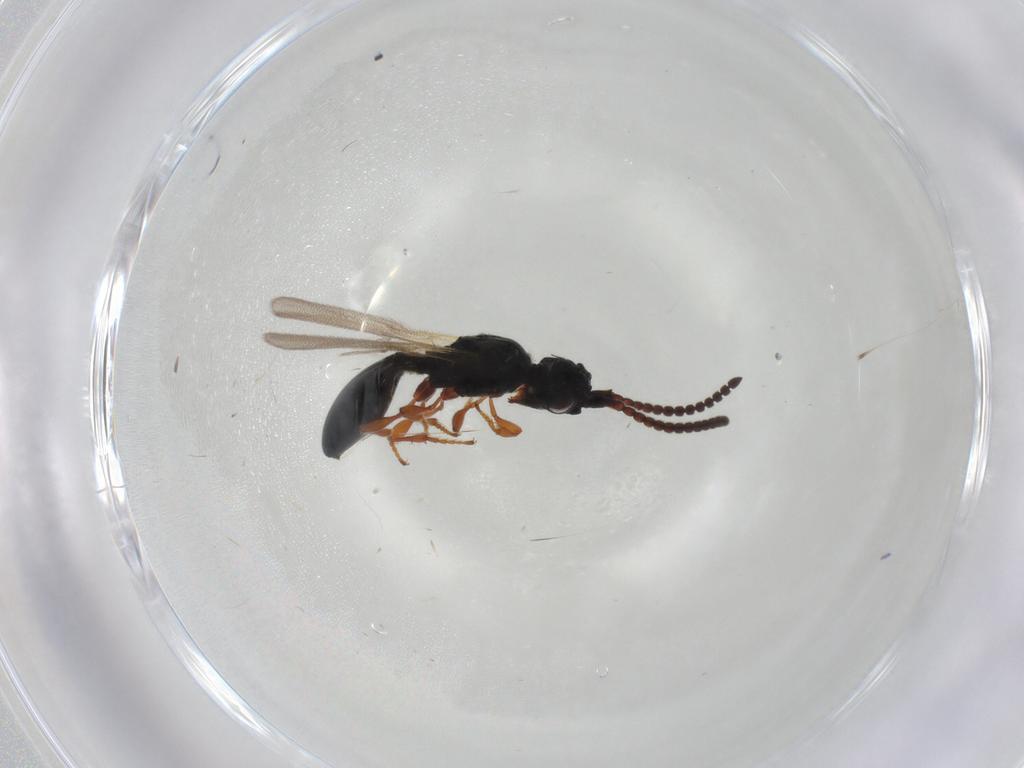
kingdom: Animalia
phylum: Arthropoda
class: Insecta
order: Hymenoptera
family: Diapriidae
